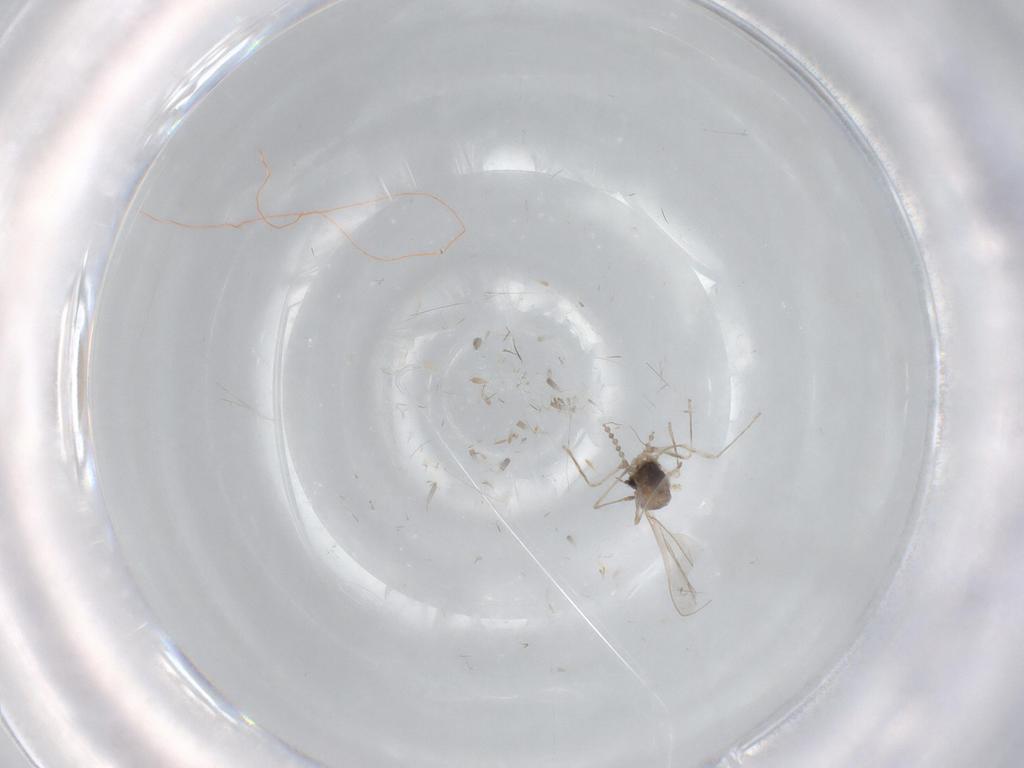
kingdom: Animalia
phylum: Arthropoda
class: Insecta
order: Diptera
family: Cecidomyiidae
